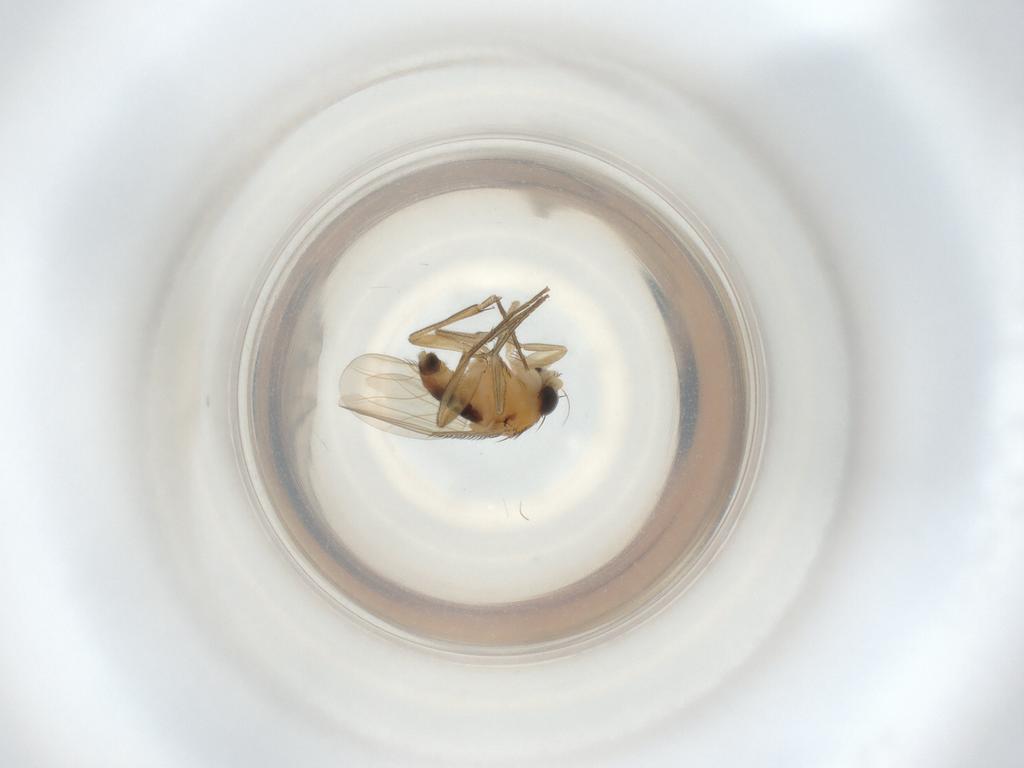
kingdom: Animalia
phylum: Arthropoda
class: Insecta
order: Diptera
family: Phoridae
